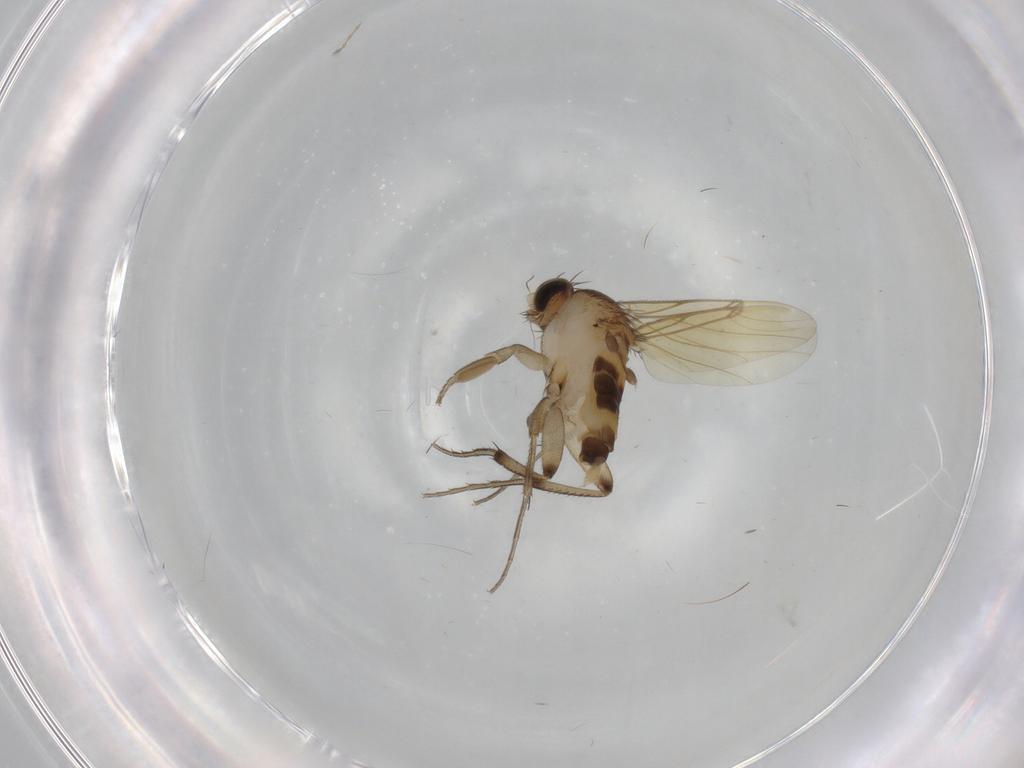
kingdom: Animalia
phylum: Arthropoda
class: Insecta
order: Diptera
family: Phoridae
